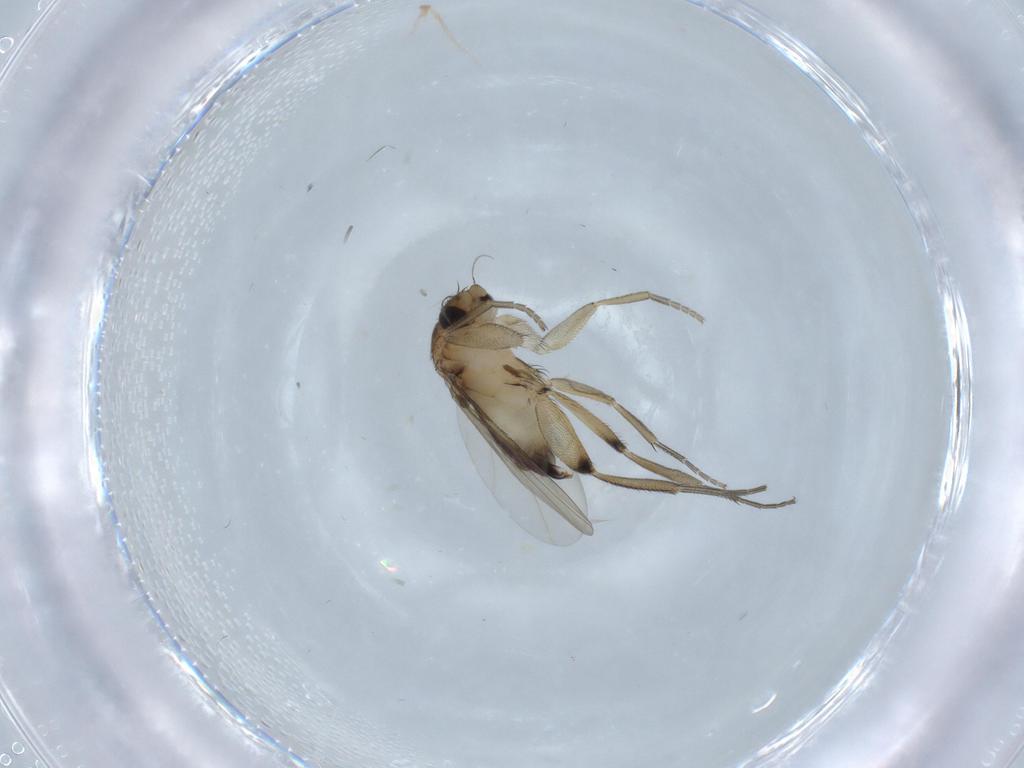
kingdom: Animalia
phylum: Arthropoda
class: Insecta
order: Diptera
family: Phoridae
